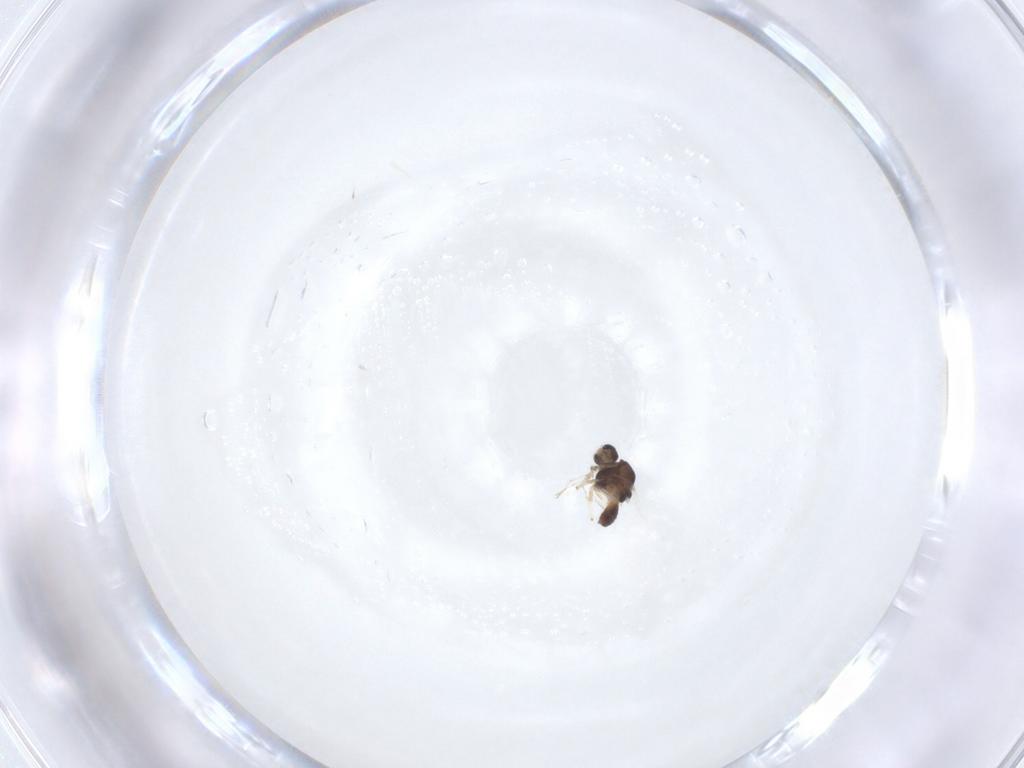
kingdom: Animalia
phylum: Arthropoda
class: Insecta
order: Diptera
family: Chironomidae
